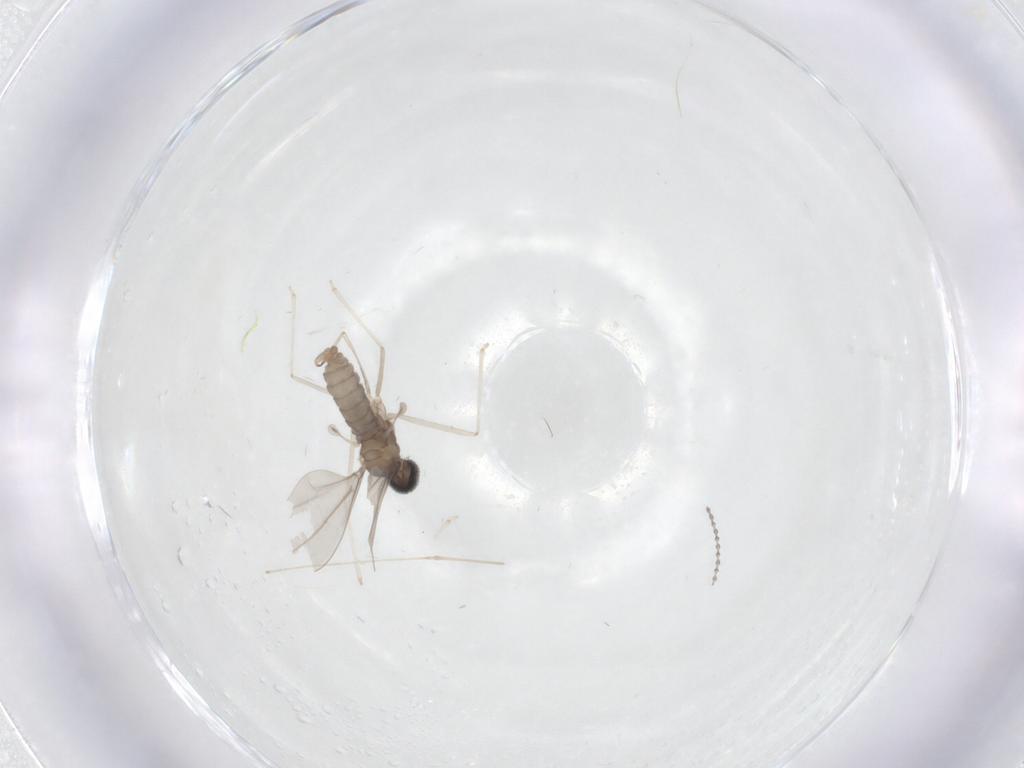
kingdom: Animalia
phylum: Arthropoda
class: Insecta
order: Diptera
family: Cecidomyiidae
